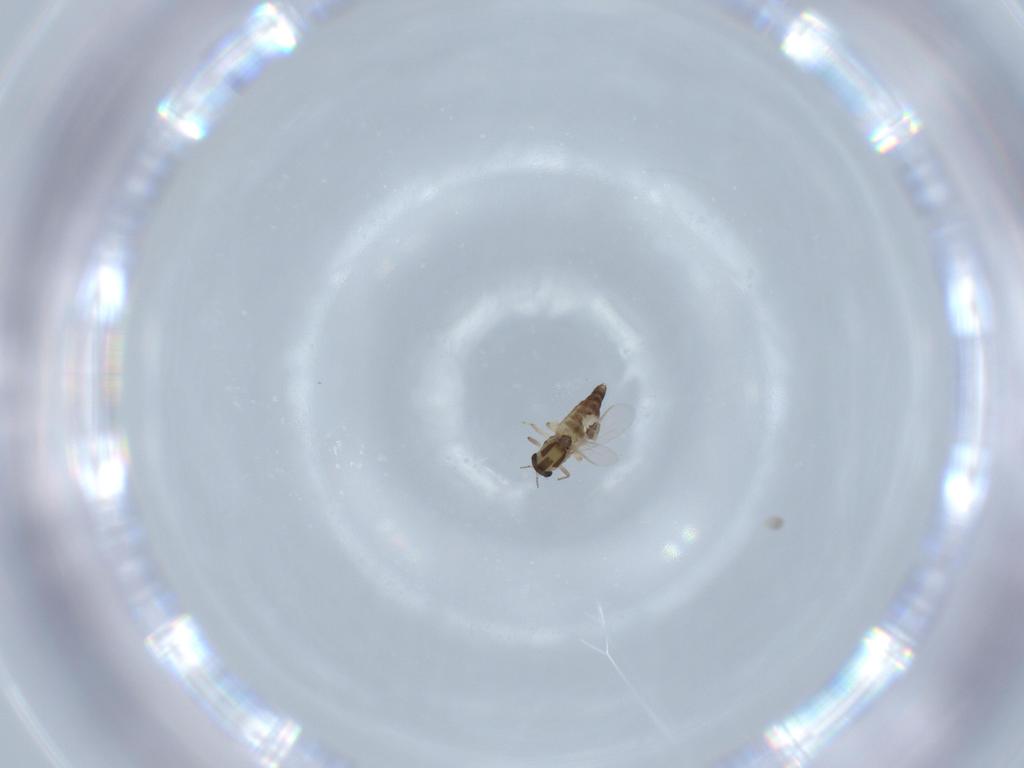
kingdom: Animalia
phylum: Arthropoda
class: Insecta
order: Diptera
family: Chironomidae
